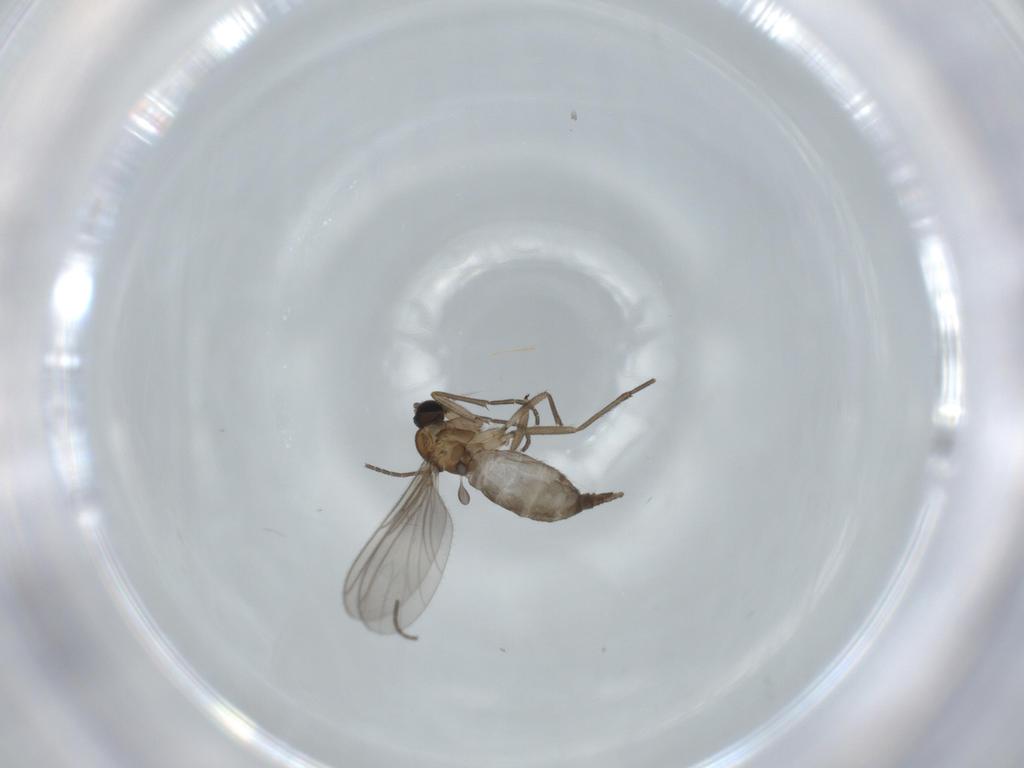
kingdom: Animalia
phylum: Arthropoda
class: Insecta
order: Diptera
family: Sciaridae
